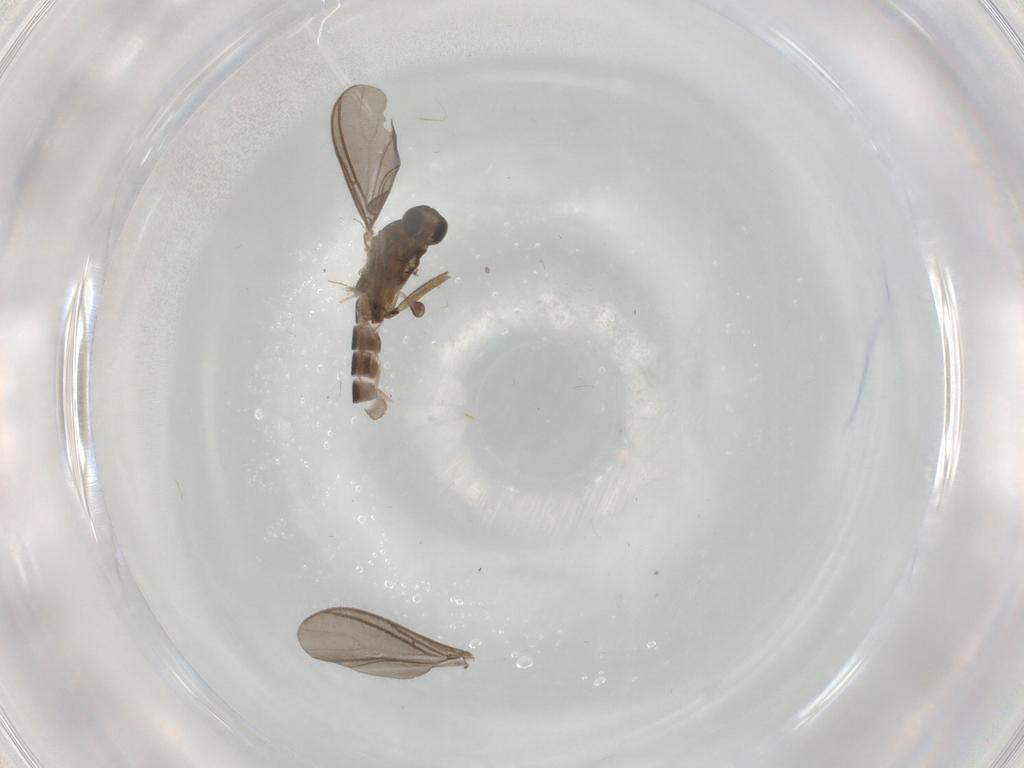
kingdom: Animalia
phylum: Arthropoda
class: Insecta
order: Diptera
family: Cecidomyiidae
